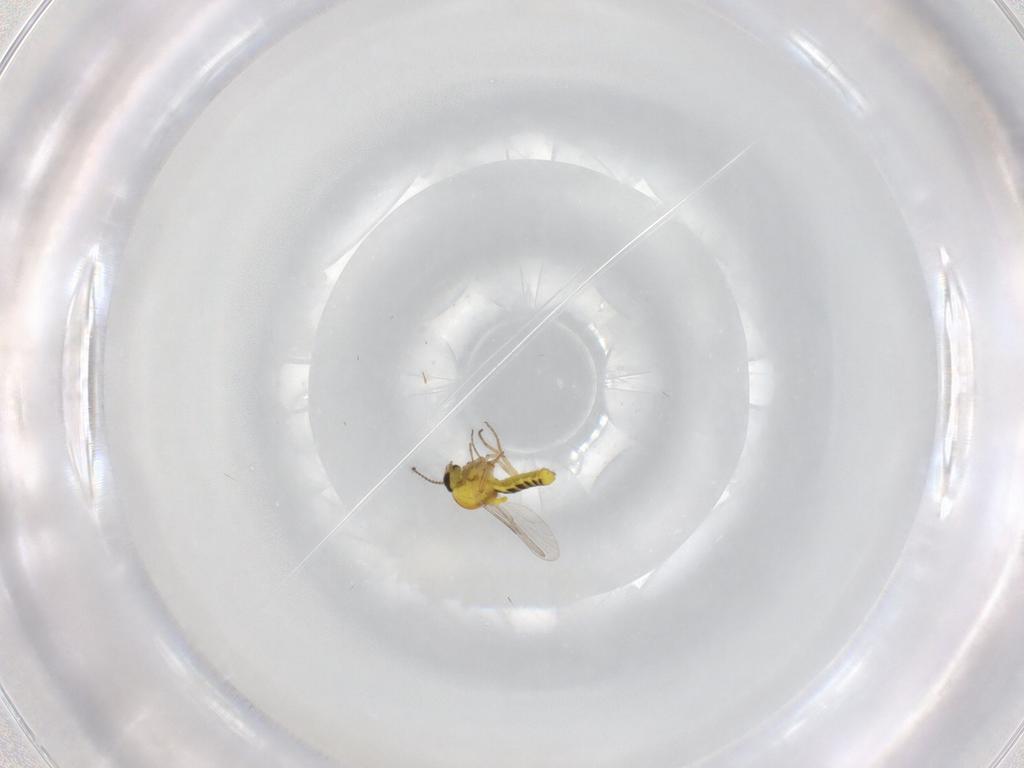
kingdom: Animalia
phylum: Arthropoda
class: Insecta
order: Diptera
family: Ceratopogonidae
